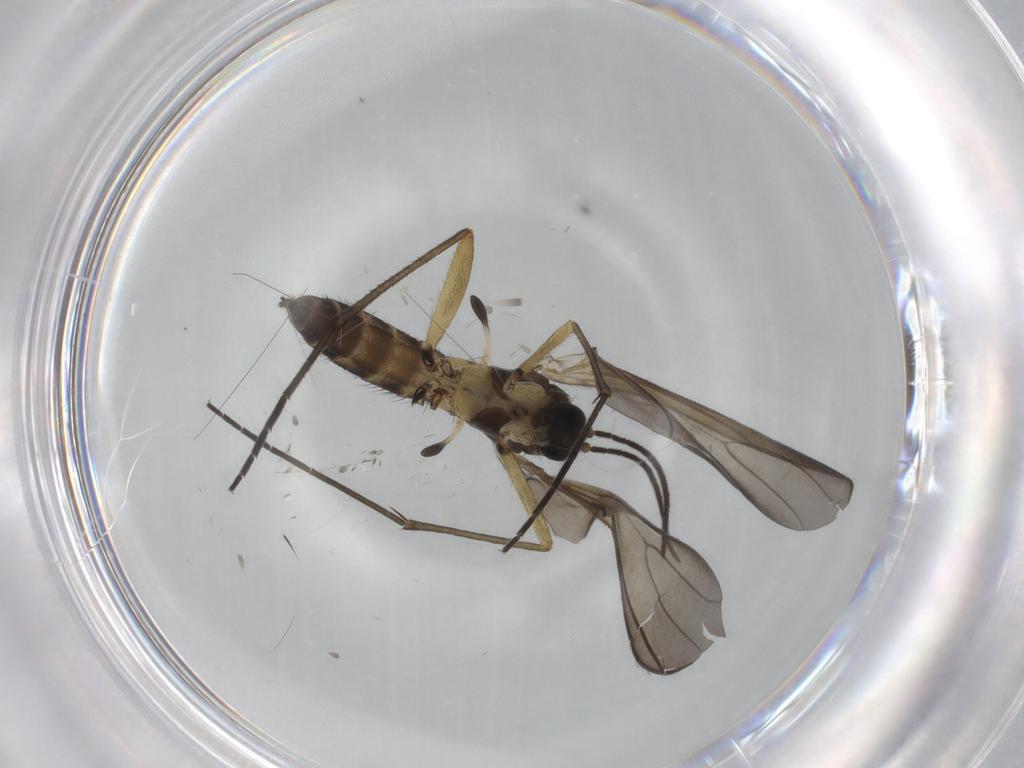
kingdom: Animalia
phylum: Arthropoda
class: Insecta
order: Diptera
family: Sciaridae
